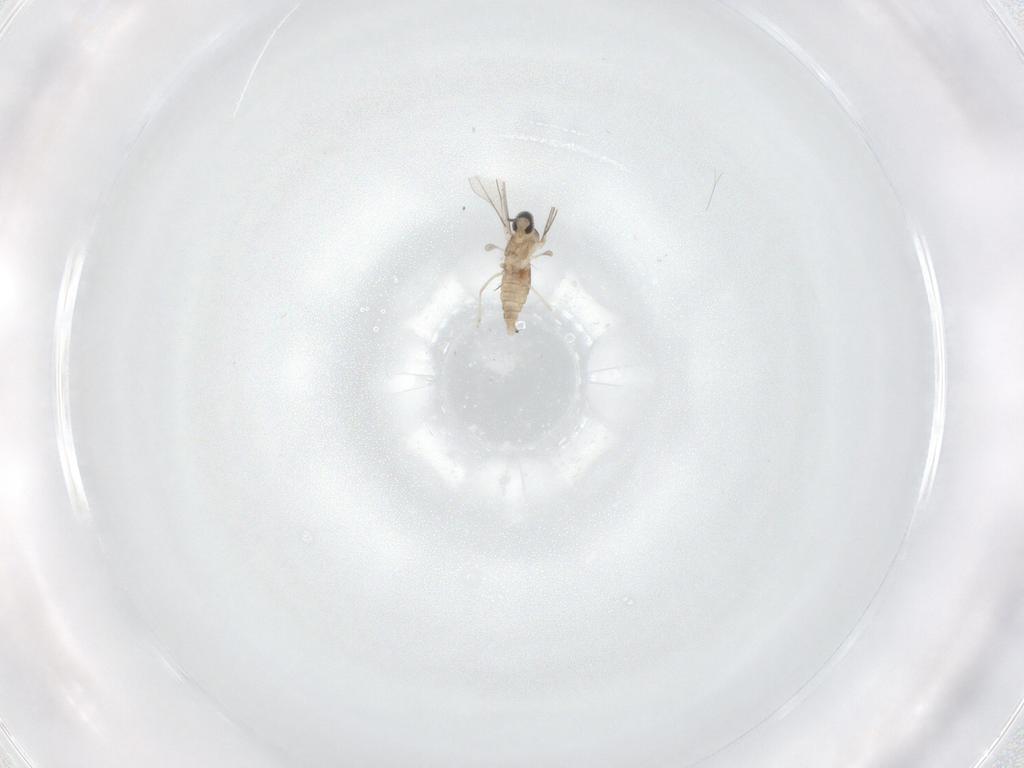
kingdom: Animalia
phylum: Arthropoda
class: Insecta
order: Diptera
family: Cecidomyiidae
